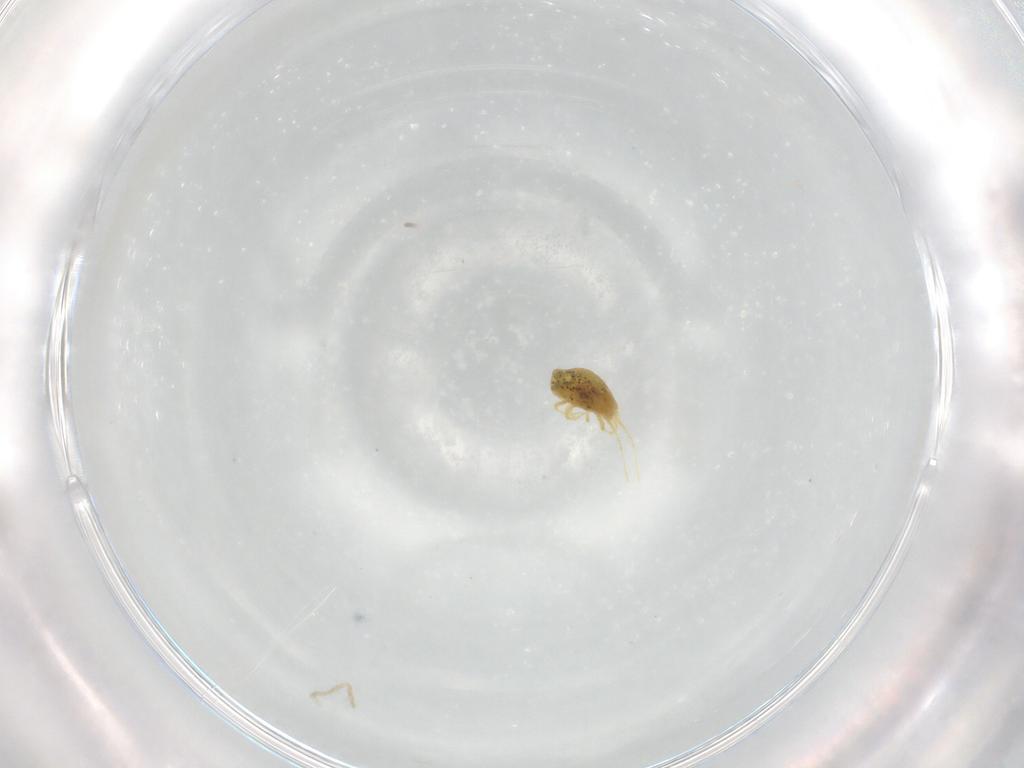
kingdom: Animalia
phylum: Arthropoda
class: Arachnida
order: Trombidiformes
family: Tetranychidae
